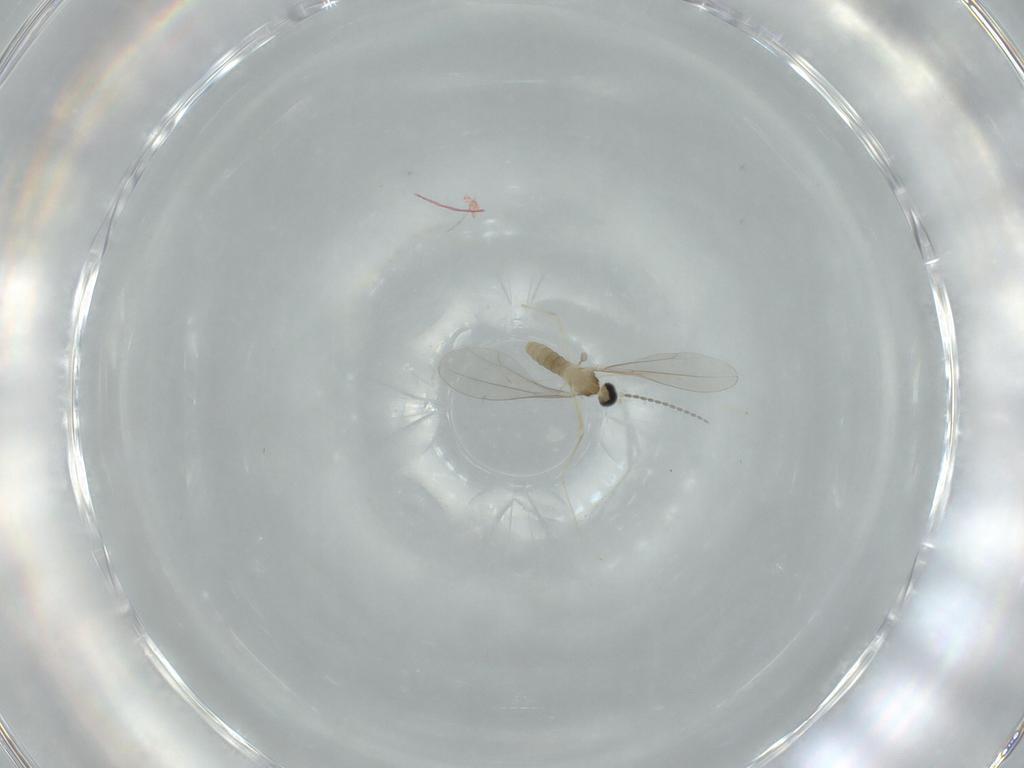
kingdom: Animalia
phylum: Arthropoda
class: Insecta
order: Diptera
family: Cecidomyiidae
